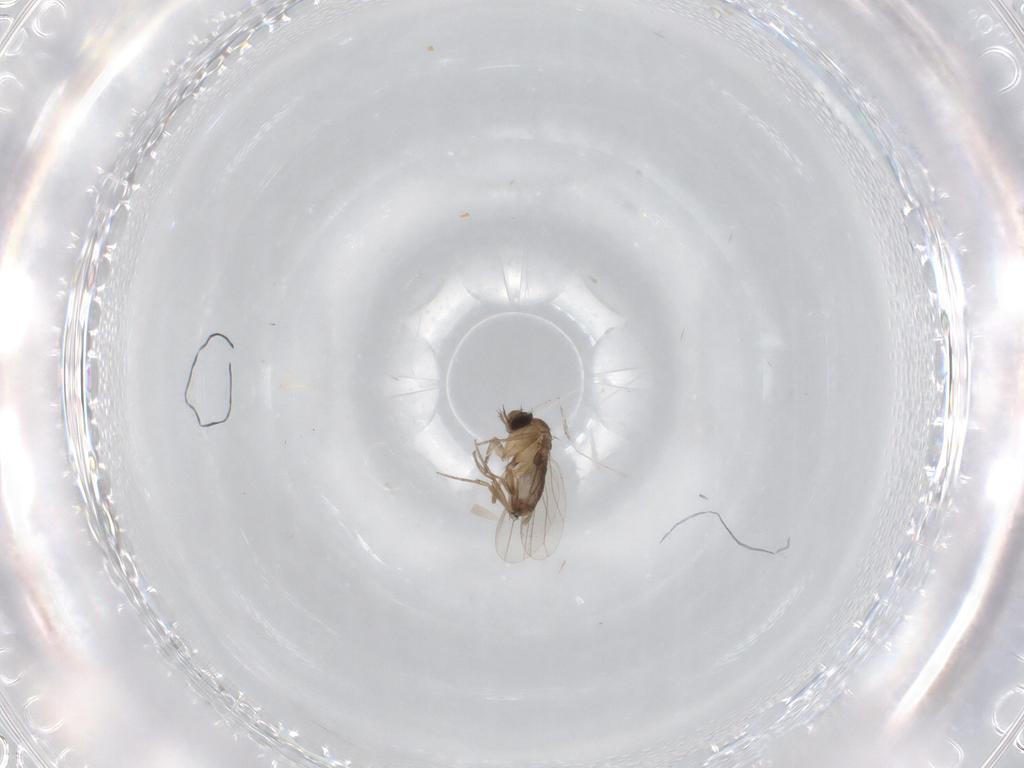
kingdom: Animalia
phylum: Arthropoda
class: Insecta
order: Diptera
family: Cecidomyiidae
